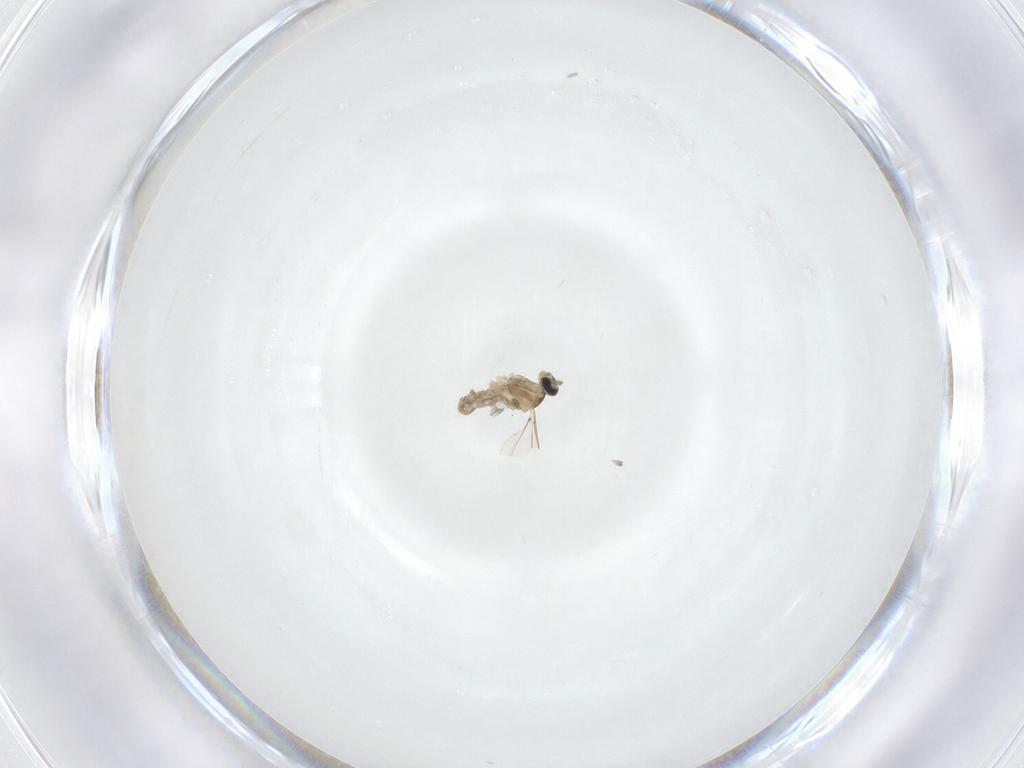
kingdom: Animalia
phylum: Arthropoda
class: Insecta
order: Diptera
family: Cecidomyiidae
